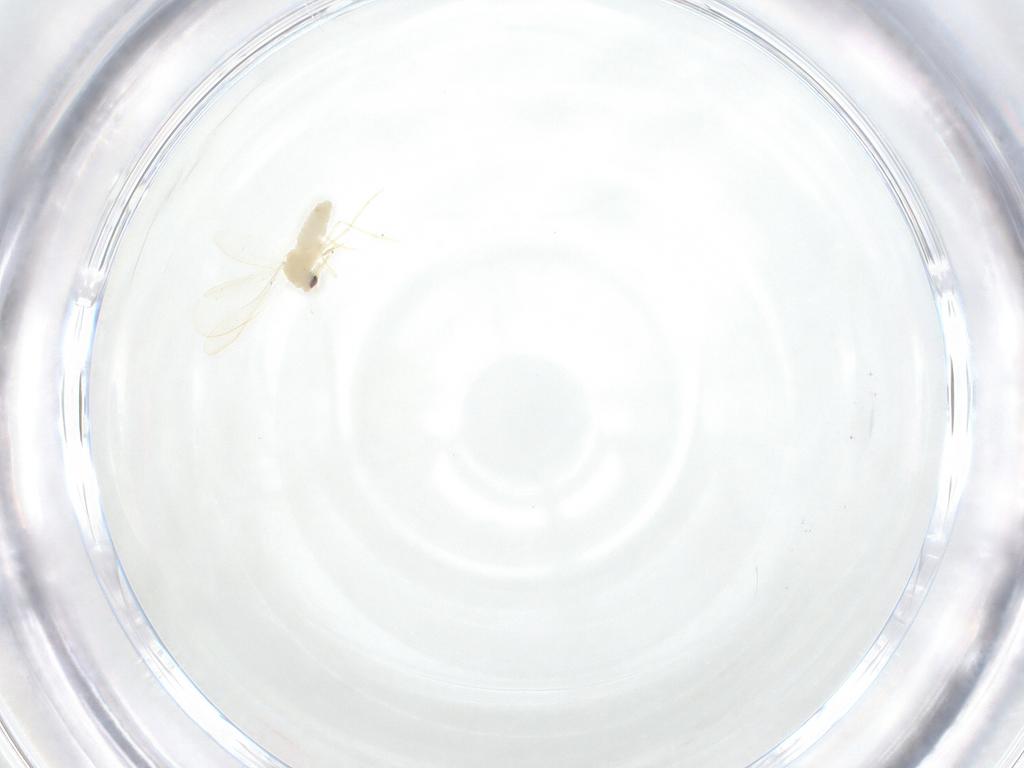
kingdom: Animalia
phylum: Arthropoda
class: Insecta
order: Hemiptera
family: Aleyrodidae
